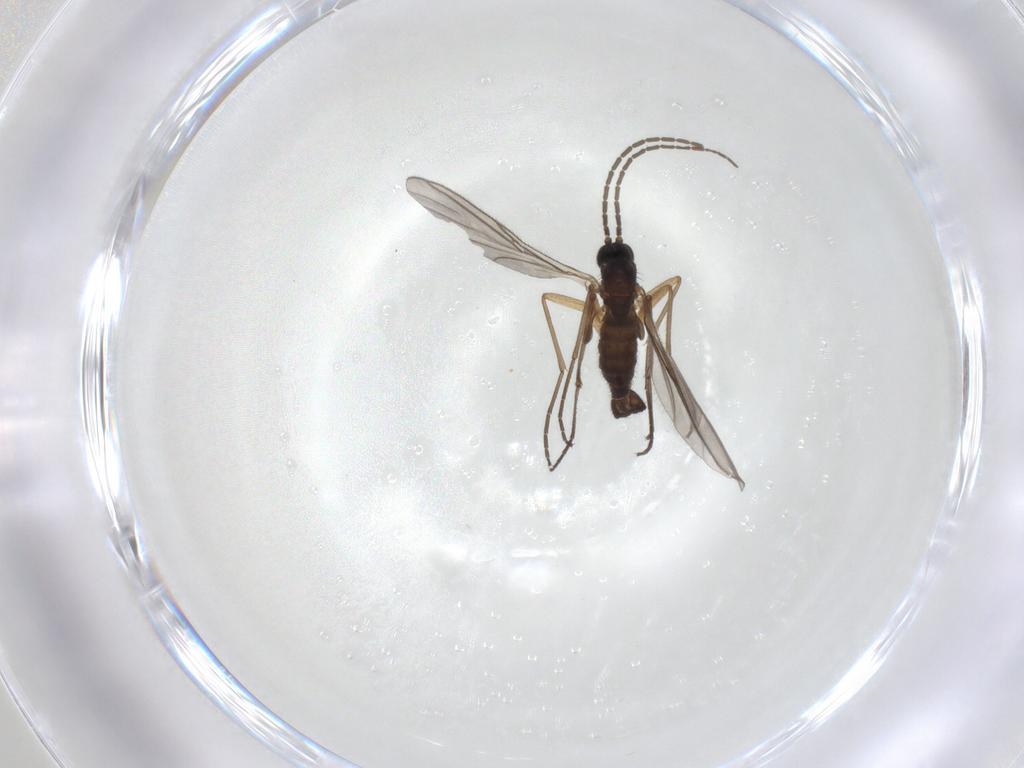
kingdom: Animalia
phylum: Arthropoda
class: Insecta
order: Diptera
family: Sciaridae
